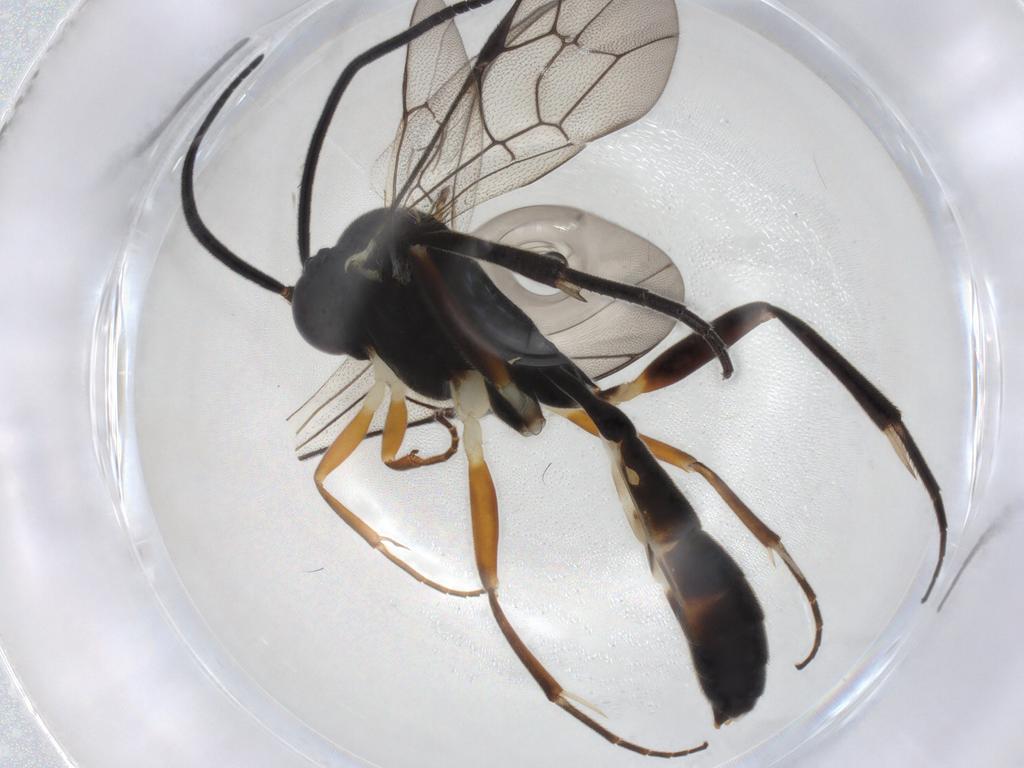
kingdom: Animalia
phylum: Arthropoda
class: Insecta
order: Hymenoptera
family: Ichneumonidae
